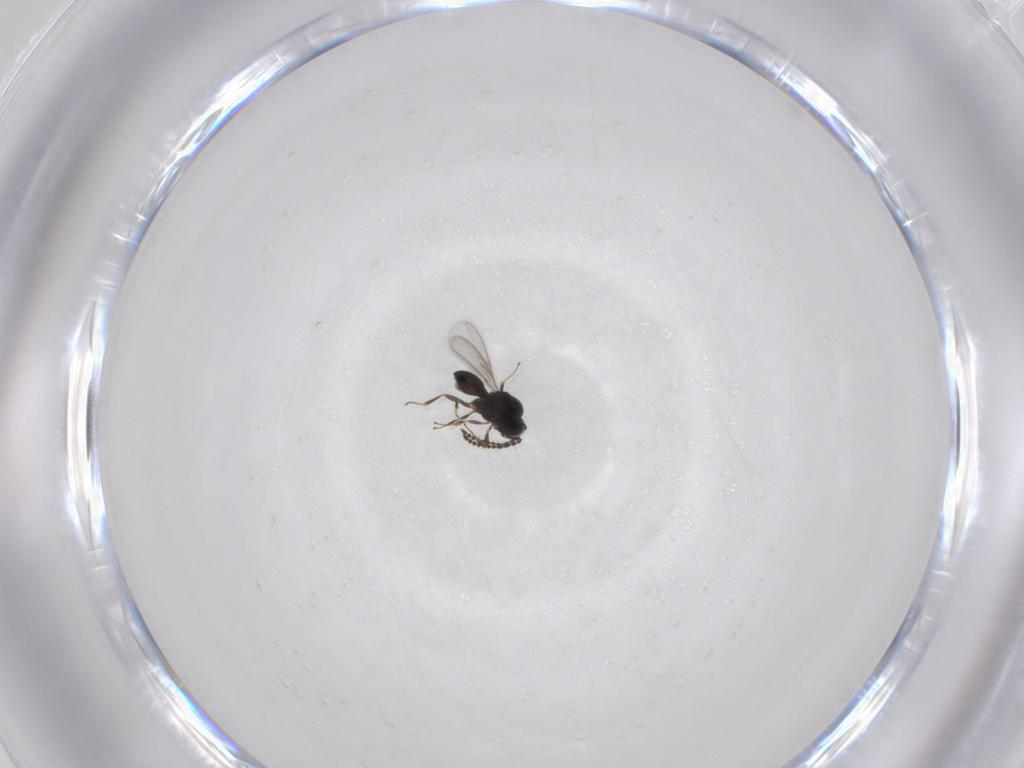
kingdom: Animalia
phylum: Arthropoda
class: Insecta
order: Hymenoptera
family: Scelionidae
